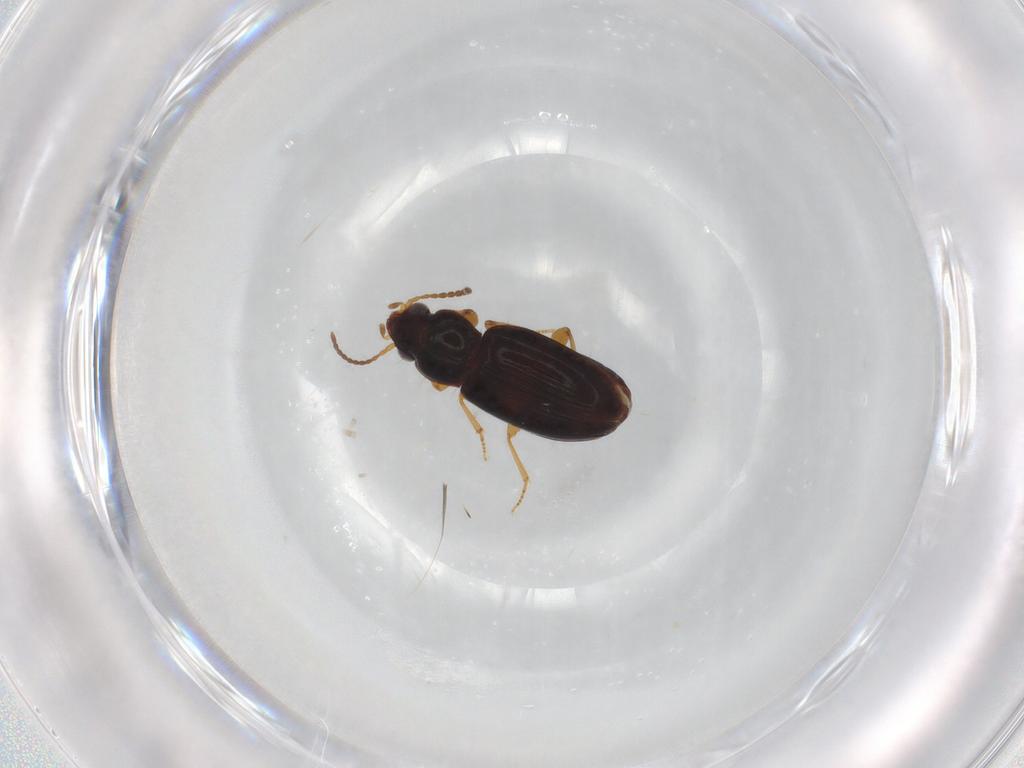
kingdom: Animalia
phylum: Arthropoda
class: Insecta
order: Coleoptera
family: Carabidae
